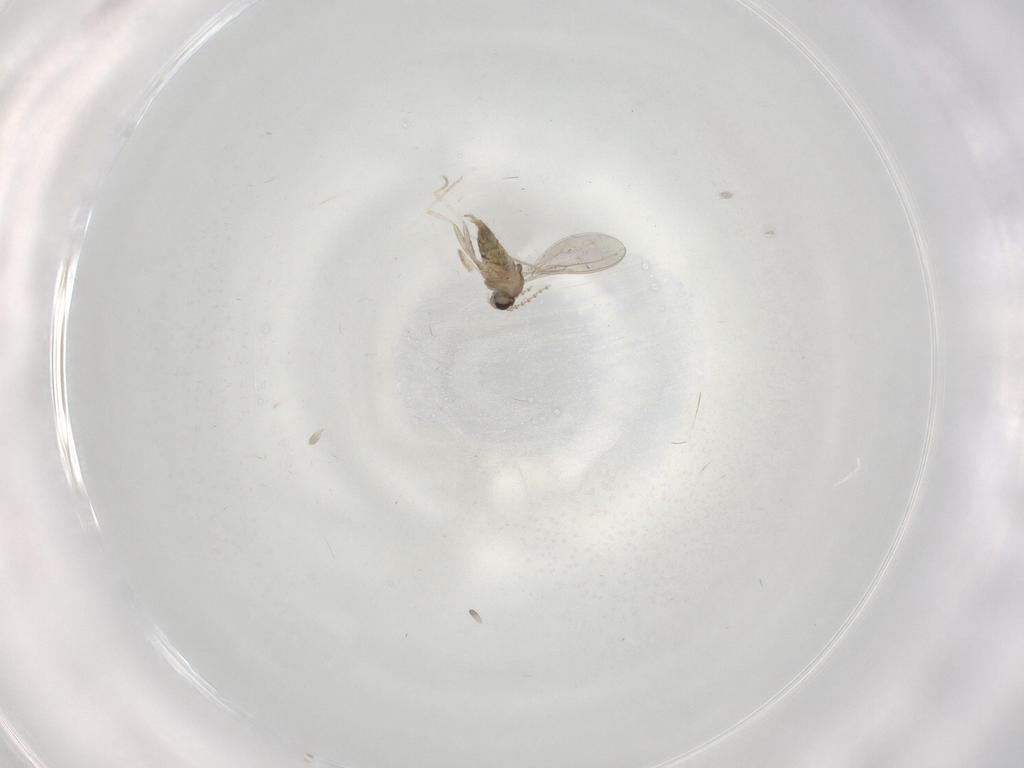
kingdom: Animalia
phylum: Arthropoda
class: Insecta
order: Diptera
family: Cecidomyiidae
